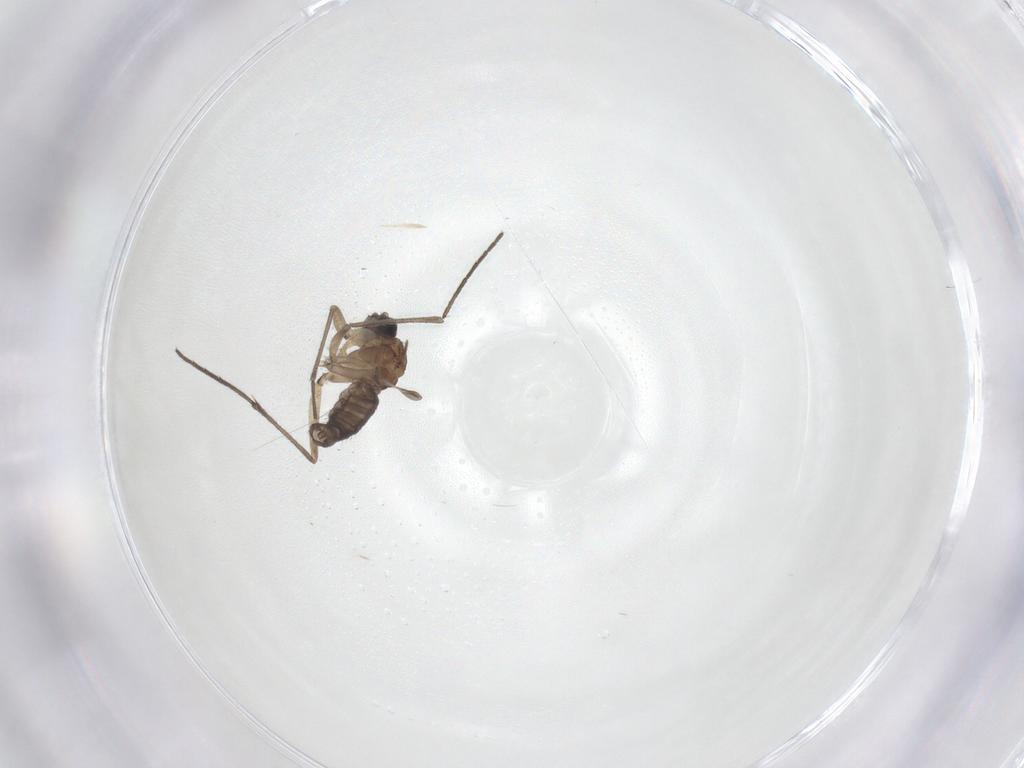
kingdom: Animalia
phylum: Arthropoda
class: Insecta
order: Diptera
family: Sciaridae
